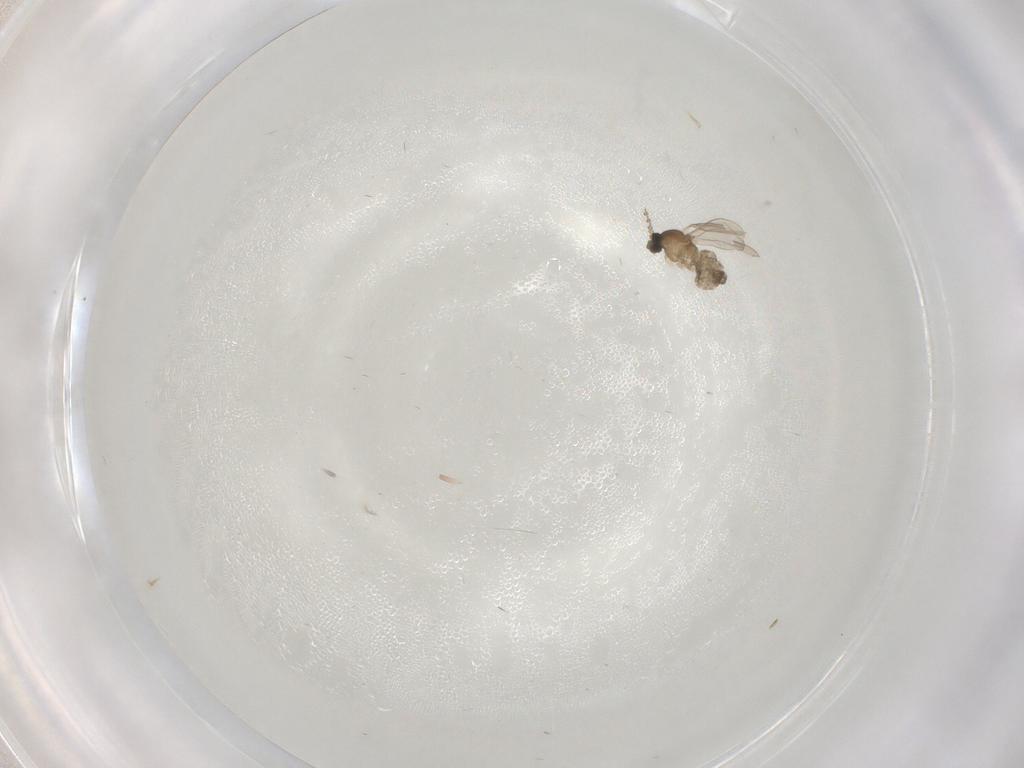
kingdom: Animalia
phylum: Arthropoda
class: Insecta
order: Diptera
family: Cecidomyiidae
